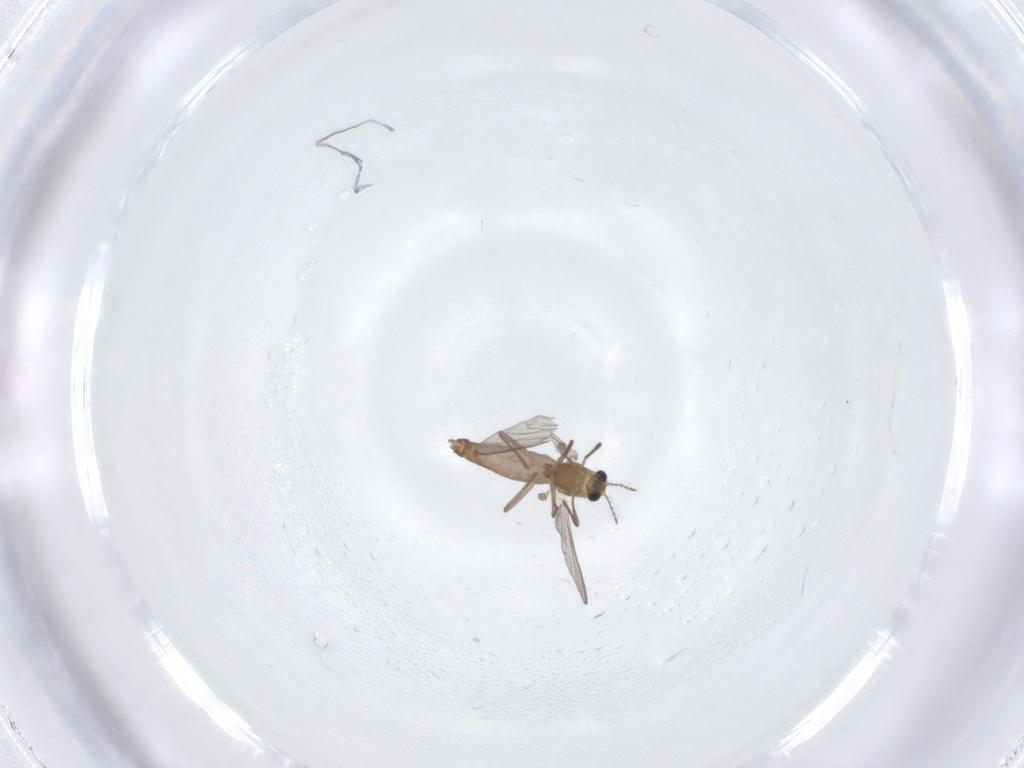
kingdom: Animalia
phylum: Arthropoda
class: Insecta
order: Diptera
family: Chironomidae
